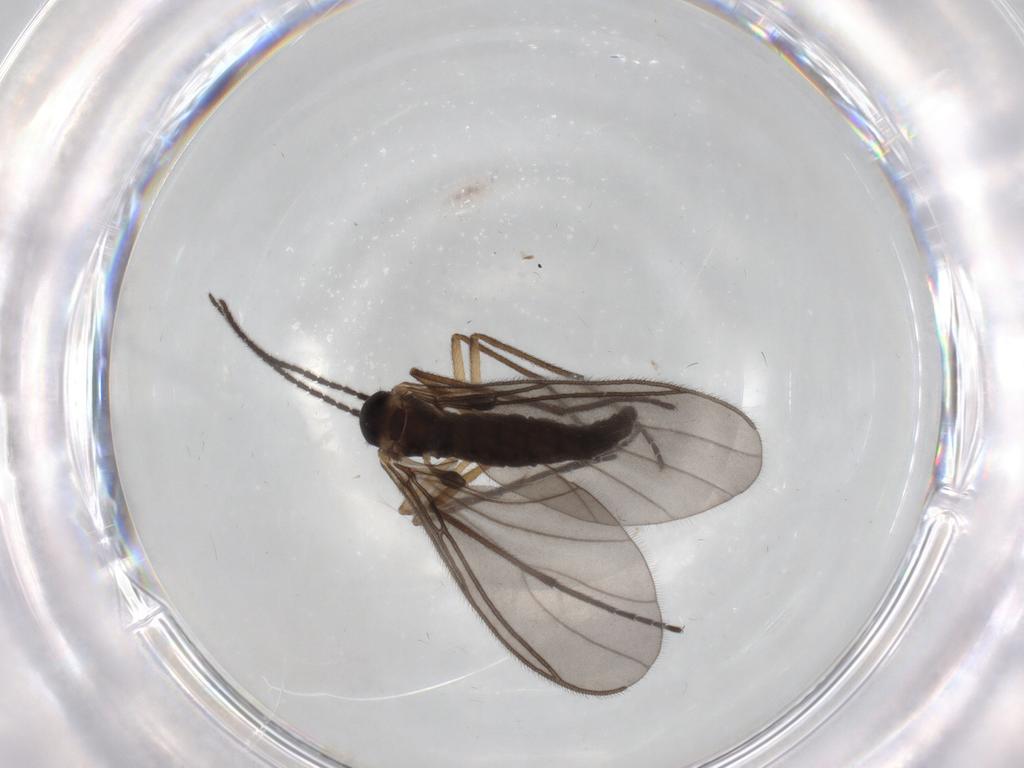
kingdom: Animalia
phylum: Arthropoda
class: Insecta
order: Diptera
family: Sciaridae
